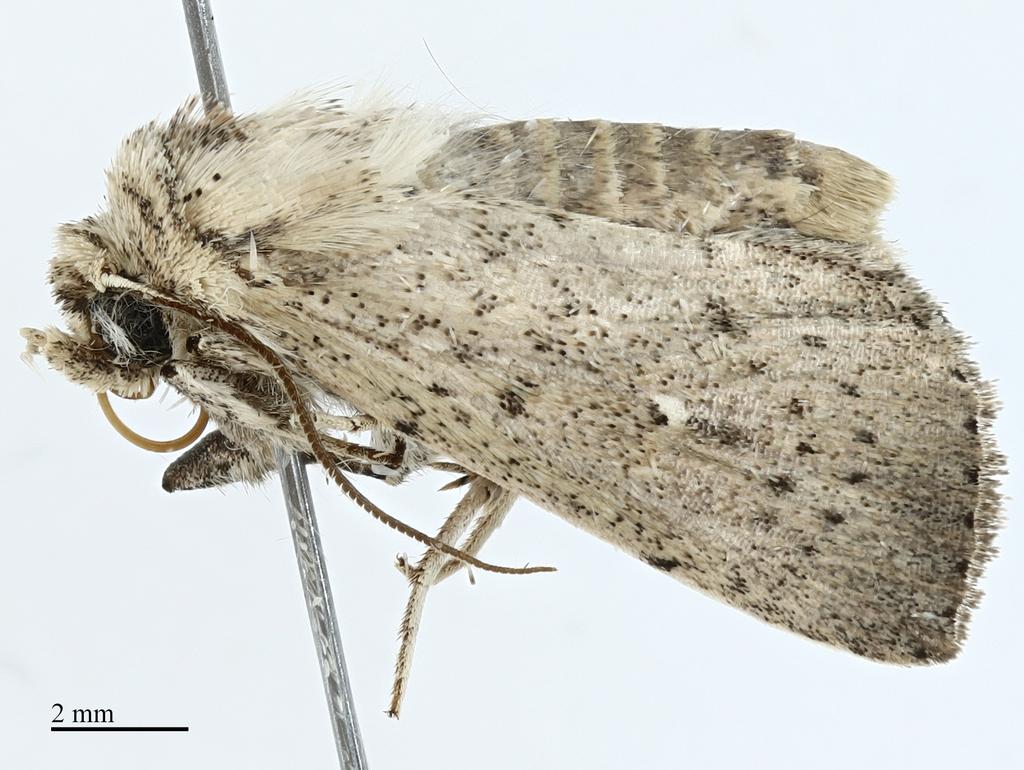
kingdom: Animalia
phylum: Arthropoda
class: Insecta
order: Lepidoptera
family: Noctuidae
